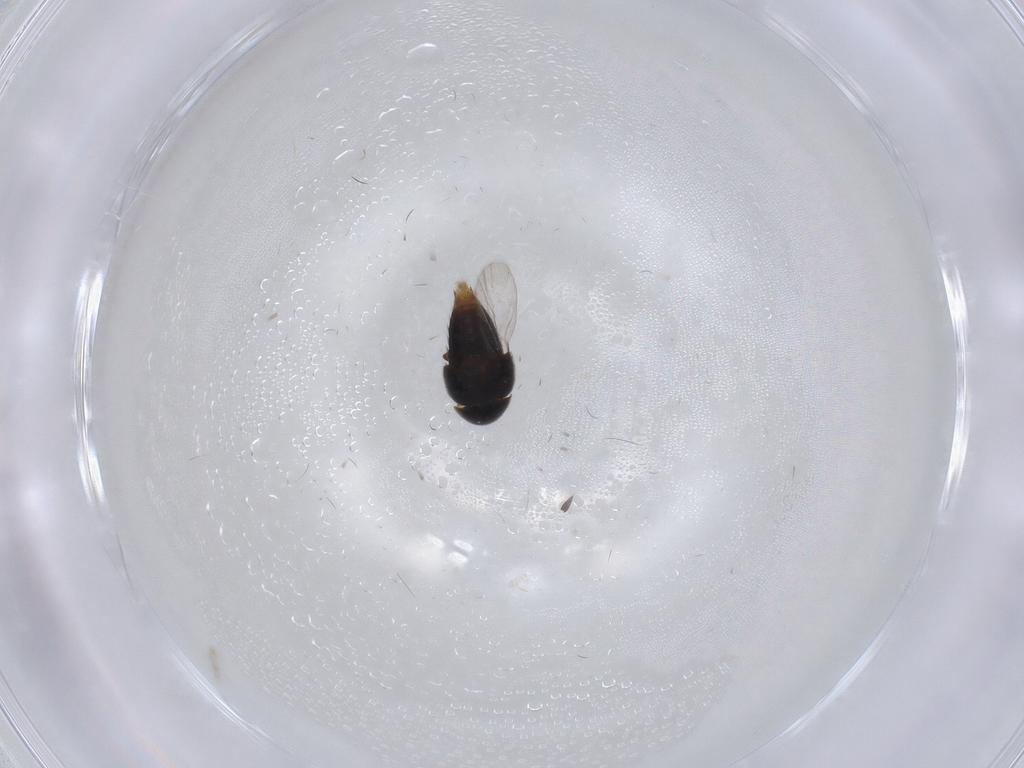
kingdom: Animalia
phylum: Arthropoda
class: Insecta
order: Coleoptera
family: Staphylinidae
